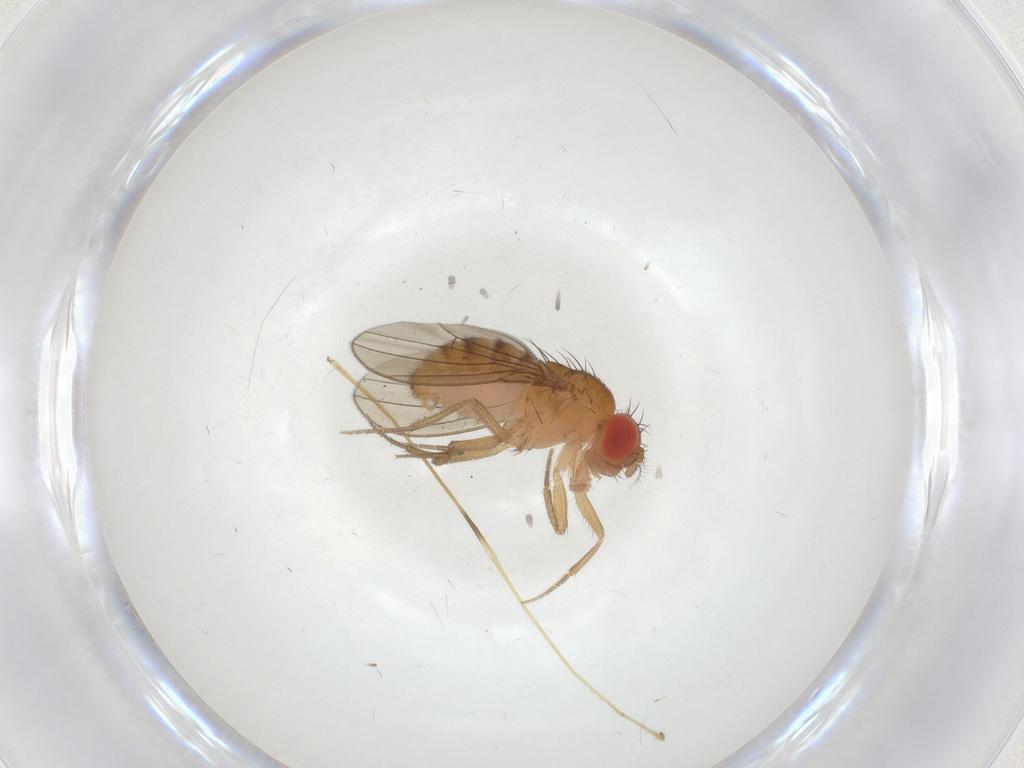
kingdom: Animalia
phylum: Arthropoda
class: Insecta
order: Diptera
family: Drosophilidae
